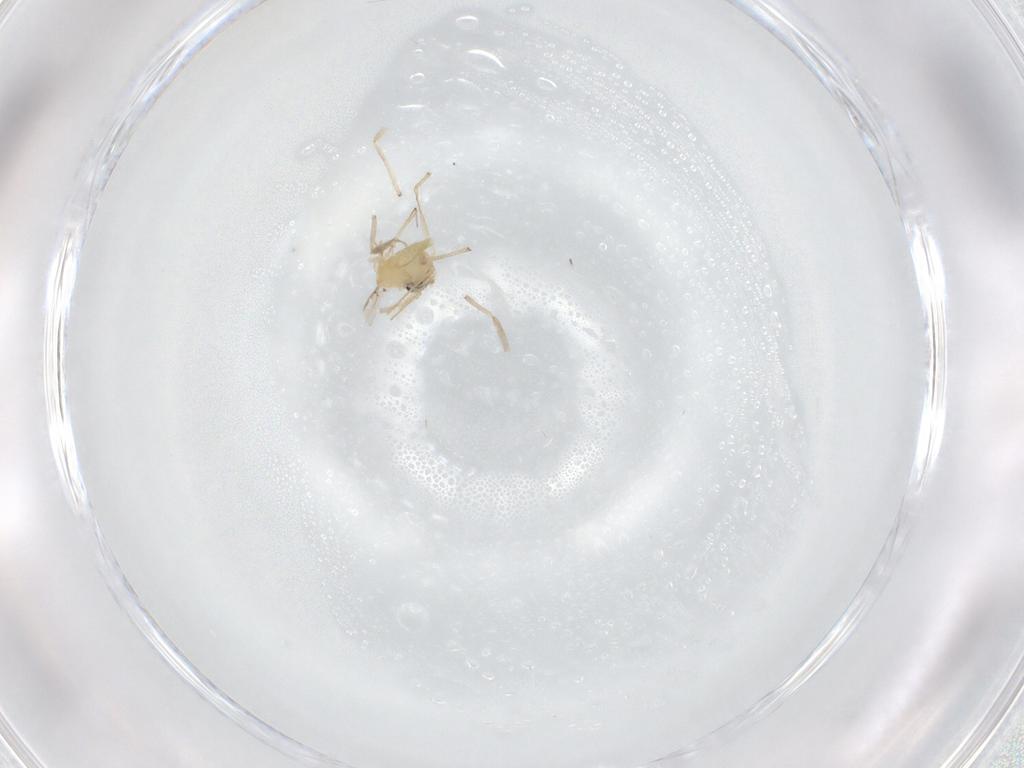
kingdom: Animalia
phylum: Arthropoda
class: Insecta
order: Diptera
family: Chironomidae
